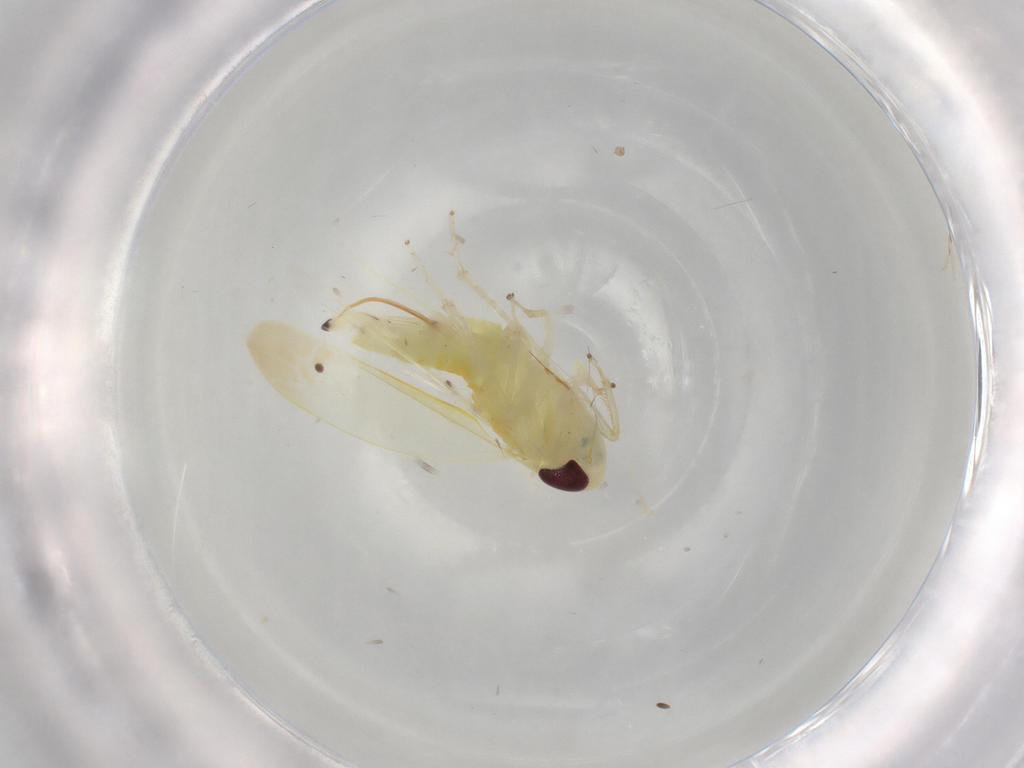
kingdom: Animalia
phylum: Arthropoda
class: Insecta
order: Hemiptera
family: Cicadellidae
